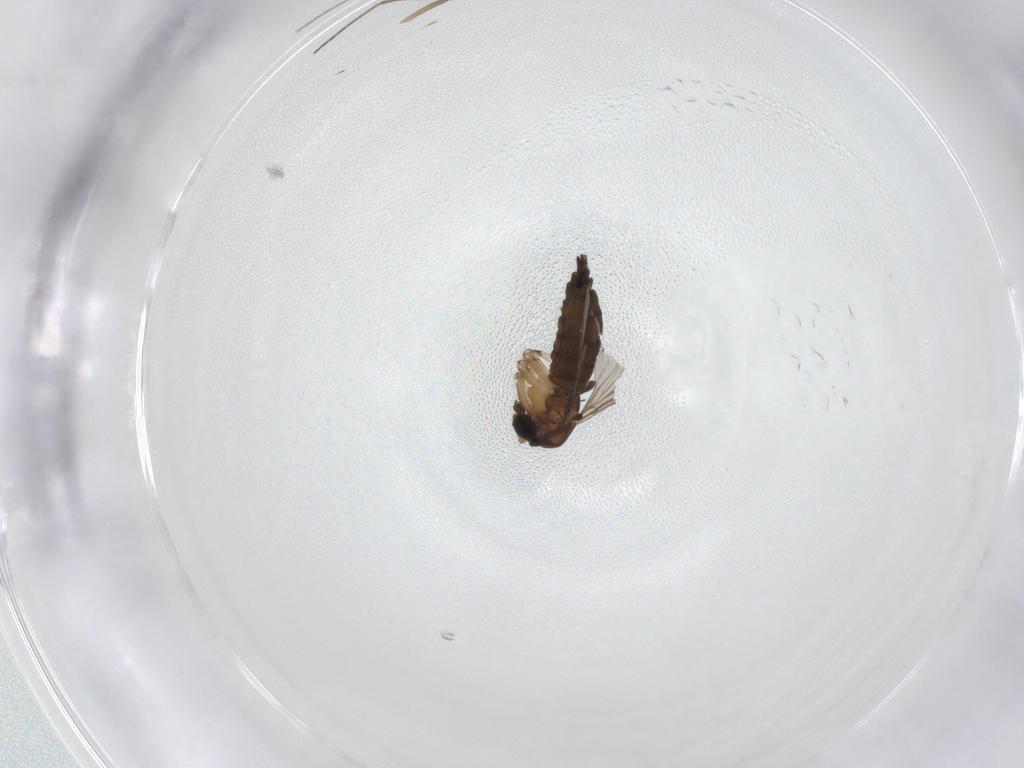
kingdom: Animalia
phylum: Arthropoda
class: Insecta
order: Diptera
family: Sciaridae
